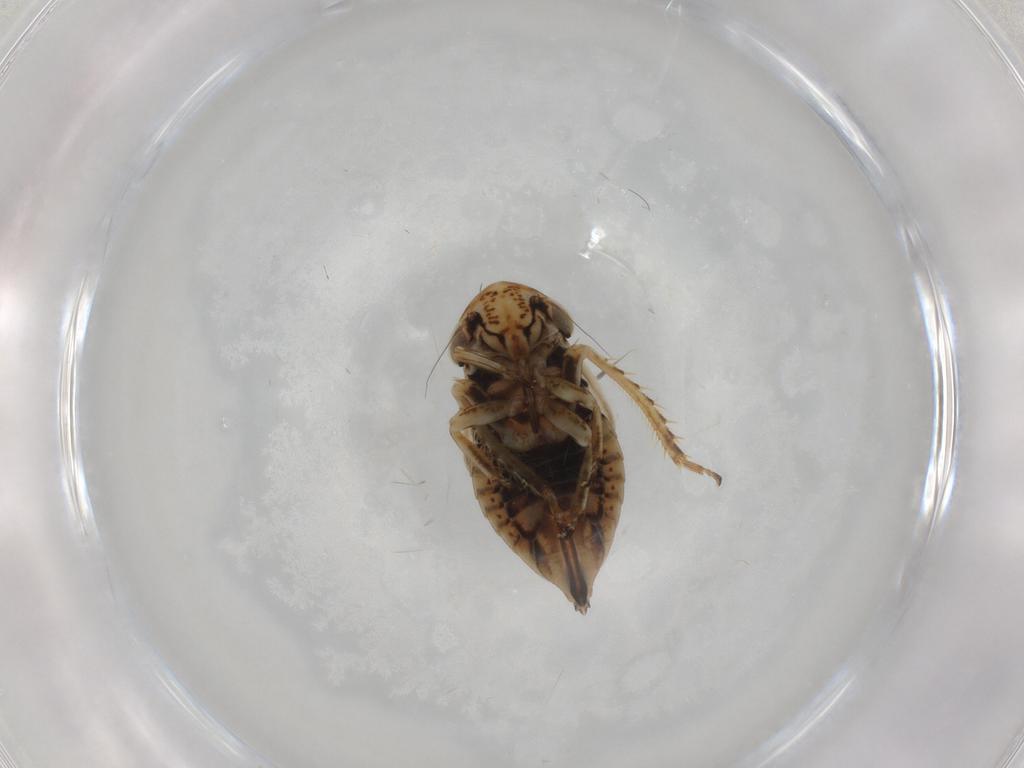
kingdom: Animalia
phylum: Arthropoda
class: Insecta
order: Hemiptera
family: Cicadellidae
